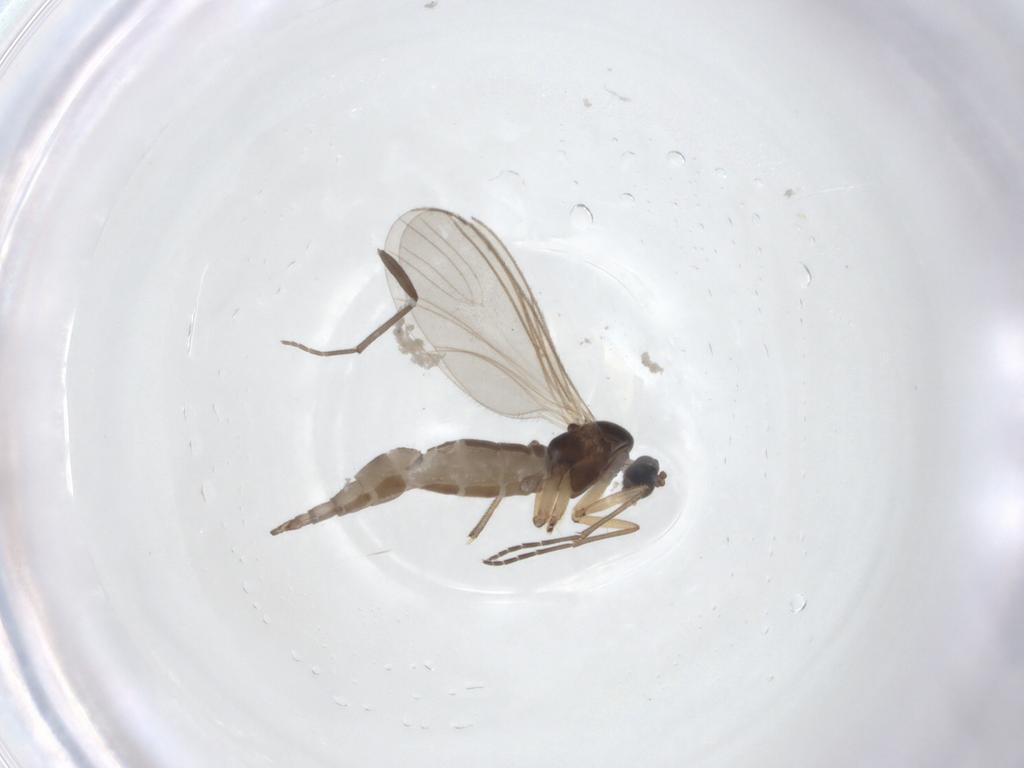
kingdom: Animalia
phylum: Arthropoda
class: Insecta
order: Diptera
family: Sciaridae
